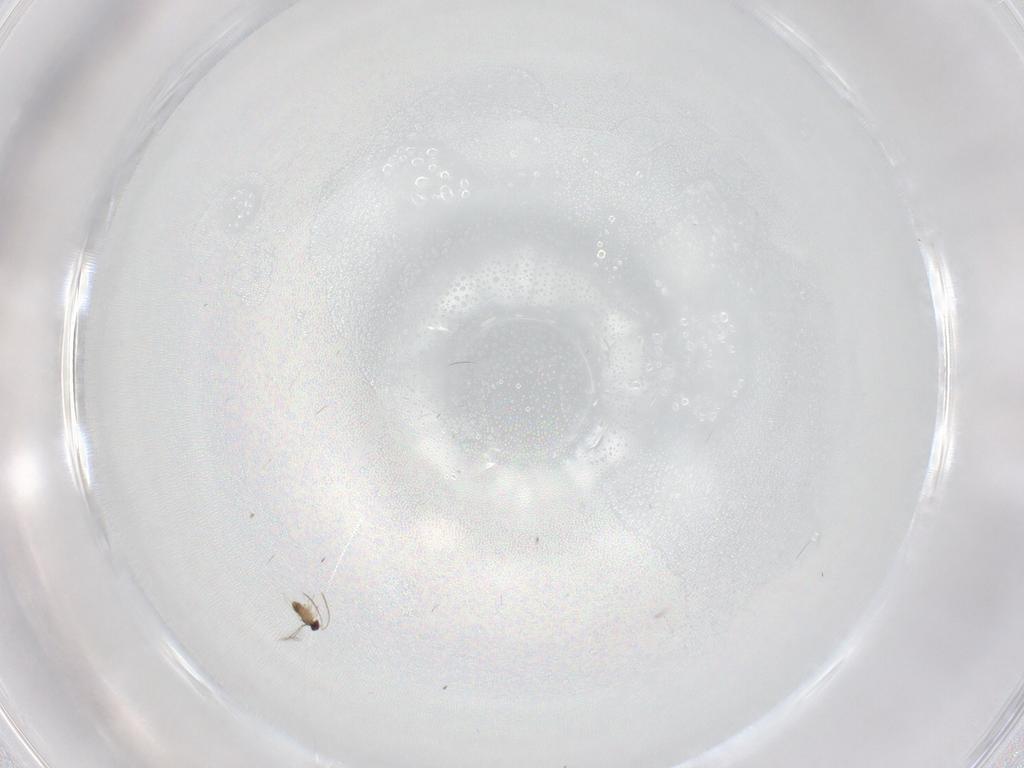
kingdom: Animalia
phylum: Arthropoda
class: Insecta
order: Hymenoptera
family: Mymaridae
